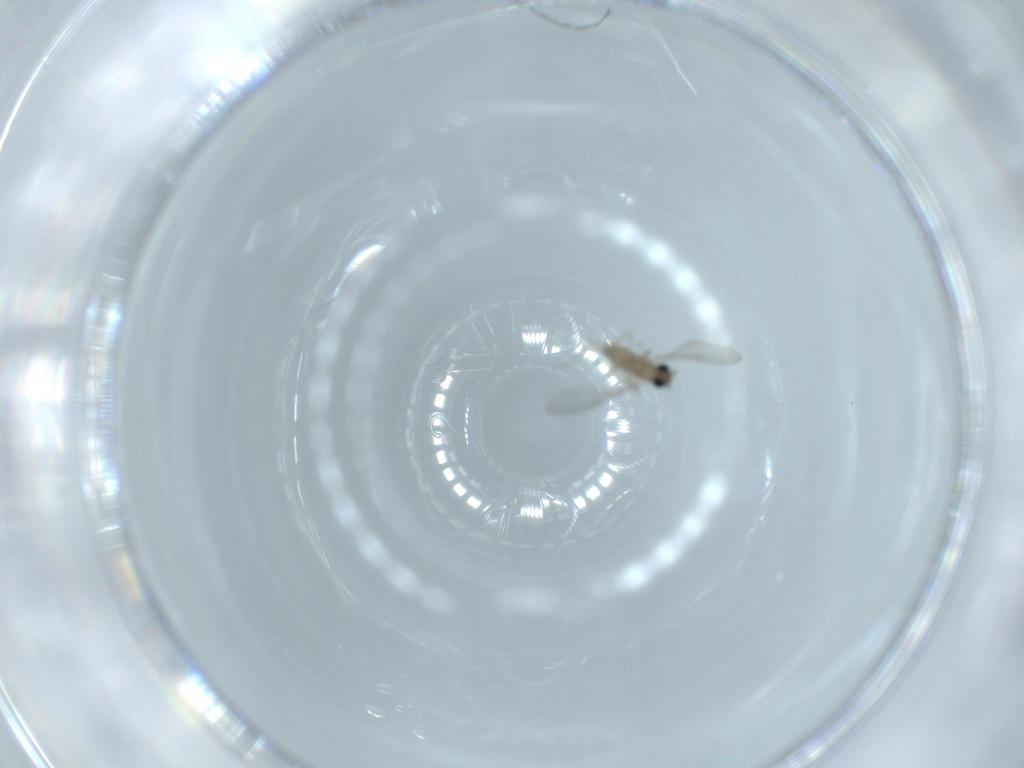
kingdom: Animalia
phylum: Arthropoda
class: Insecta
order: Diptera
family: Cecidomyiidae
